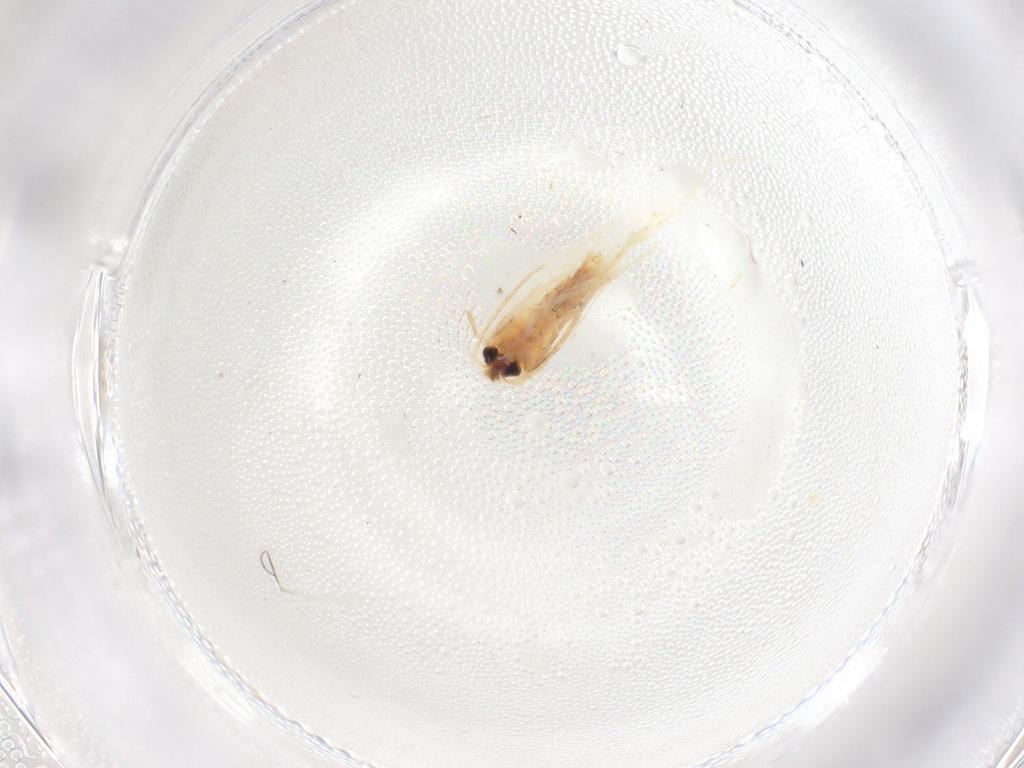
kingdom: Animalia
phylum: Arthropoda
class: Insecta
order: Lepidoptera
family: Nepticulidae
